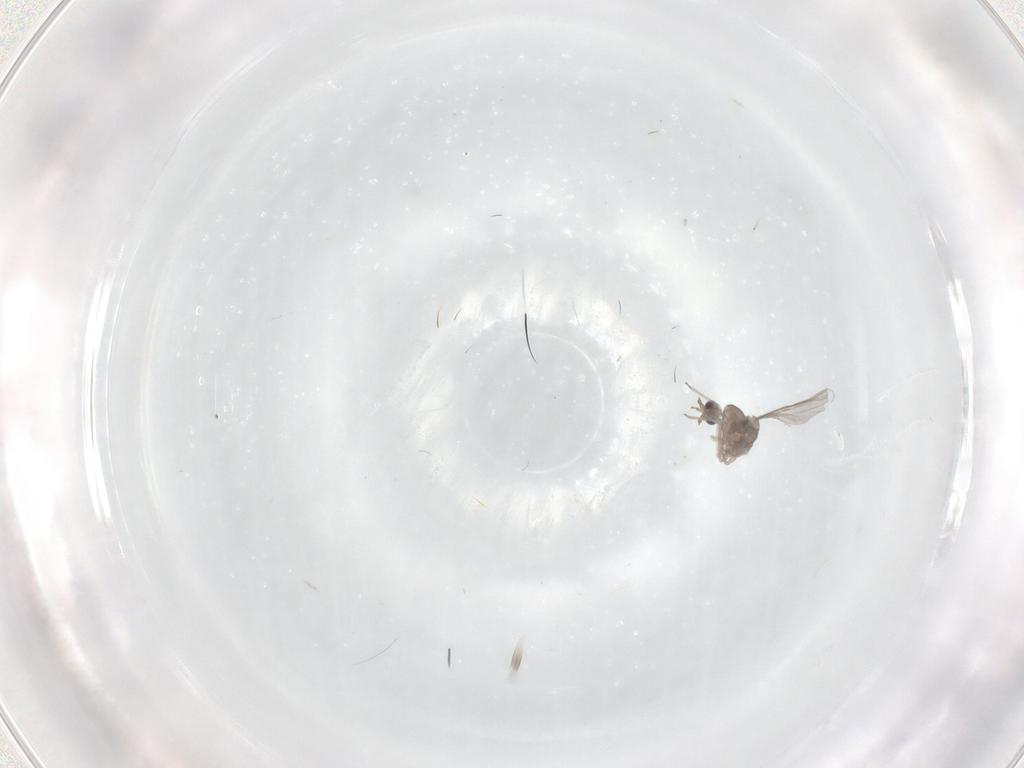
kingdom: Animalia
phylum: Arthropoda
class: Insecta
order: Diptera
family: Cecidomyiidae
